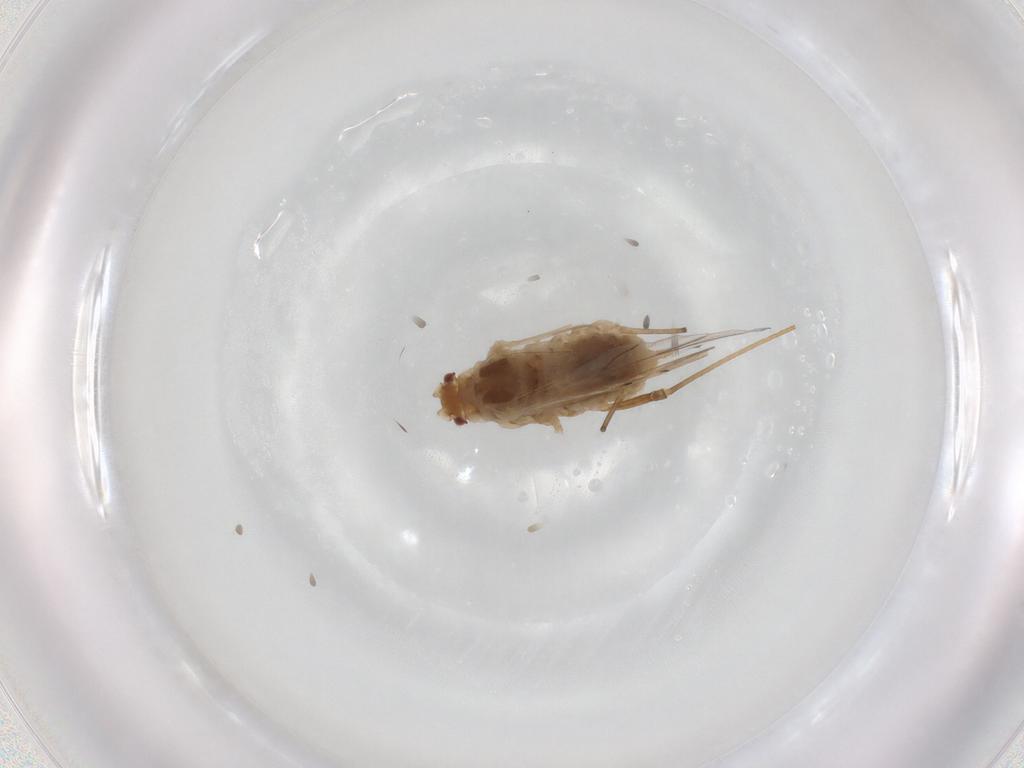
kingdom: Animalia
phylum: Arthropoda
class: Insecta
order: Hemiptera
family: Aphididae
